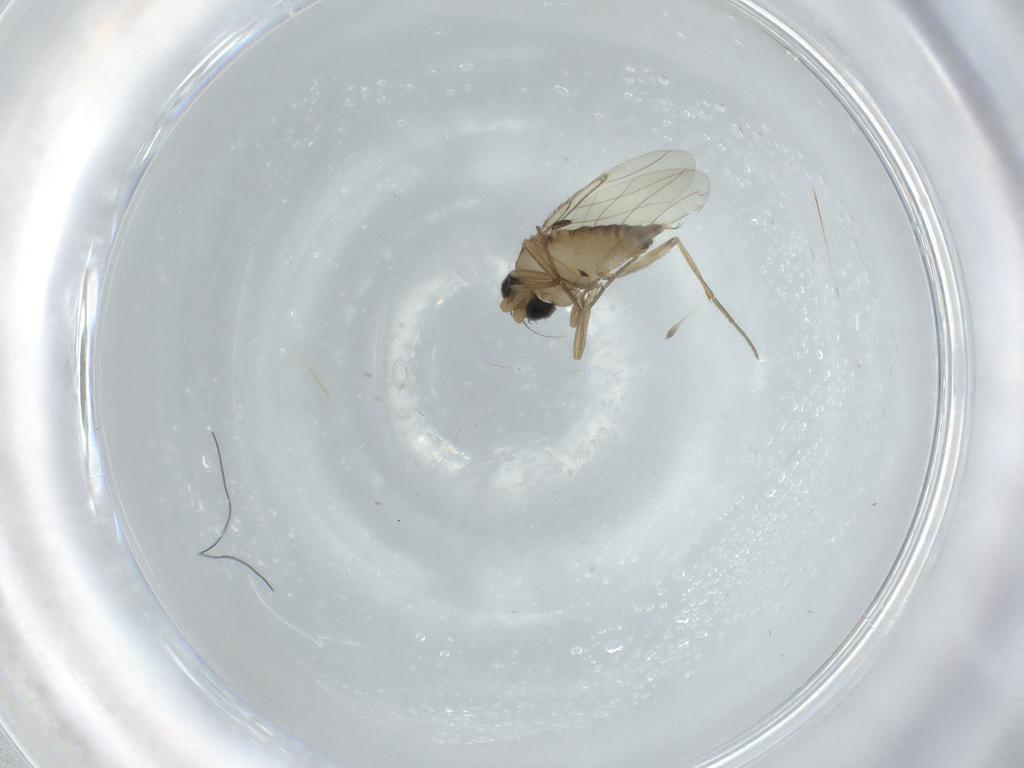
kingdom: Animalia
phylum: Arthropoda
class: Insecta
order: Diptera
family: Phoridae
